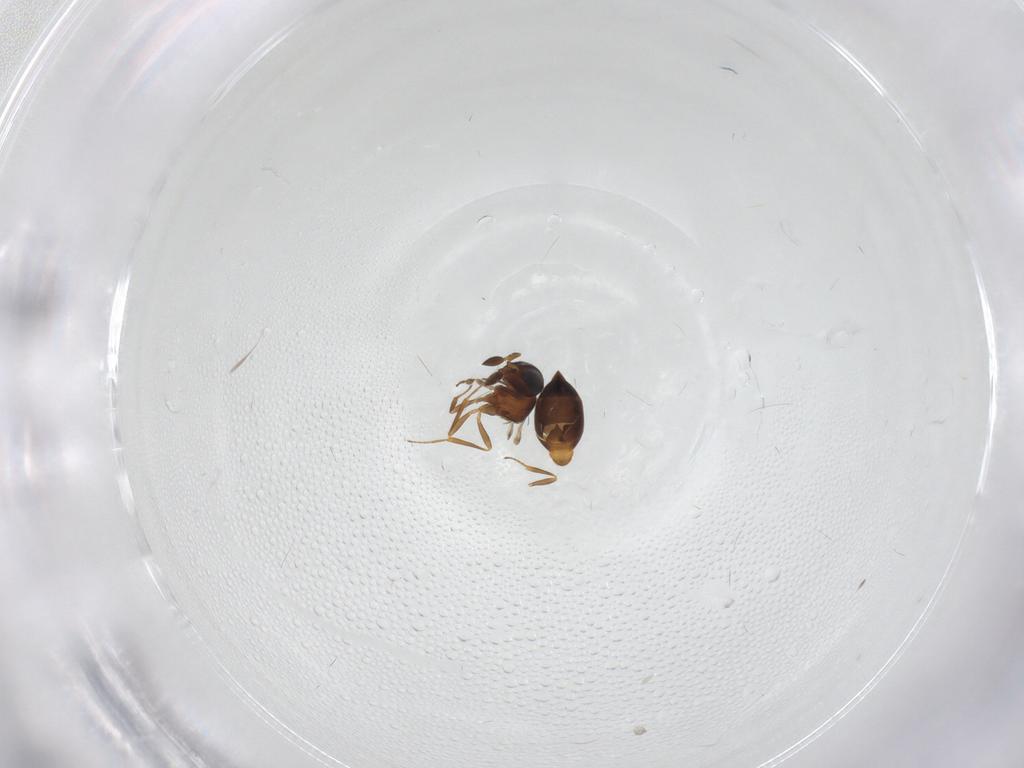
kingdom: Animalia
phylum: Arthropoda
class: Insecta
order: Hymenoptera
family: Scelionidae
